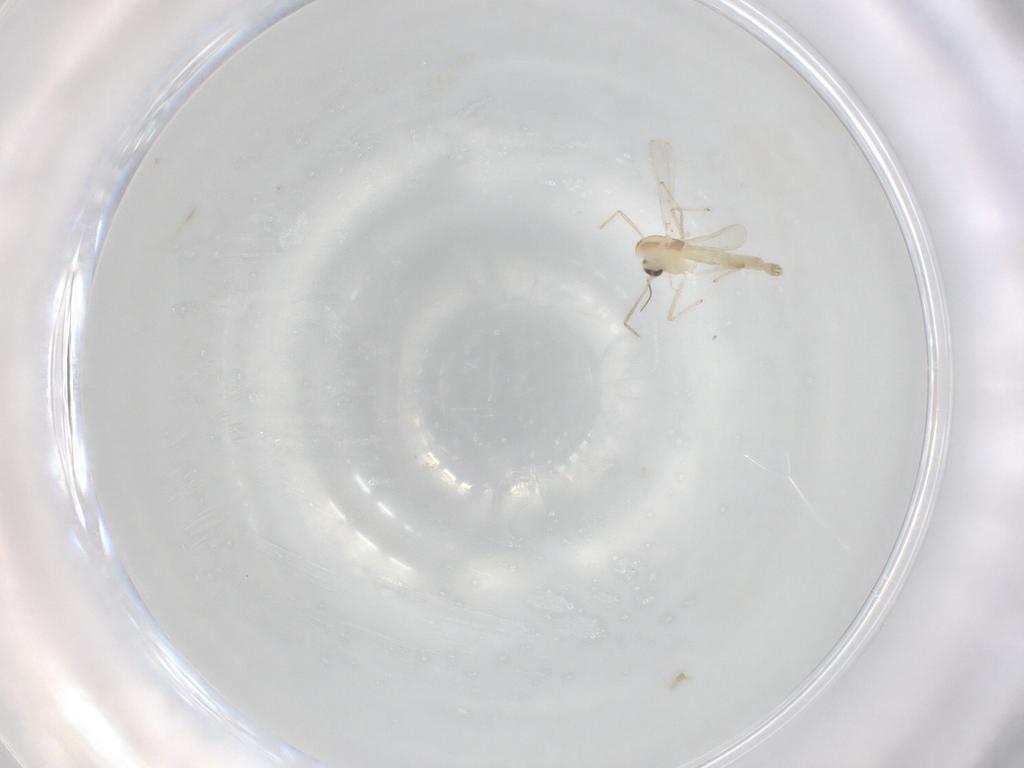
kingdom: Animalia
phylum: Arthropoda
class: Insecta
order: Diptera
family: Chironomidae
